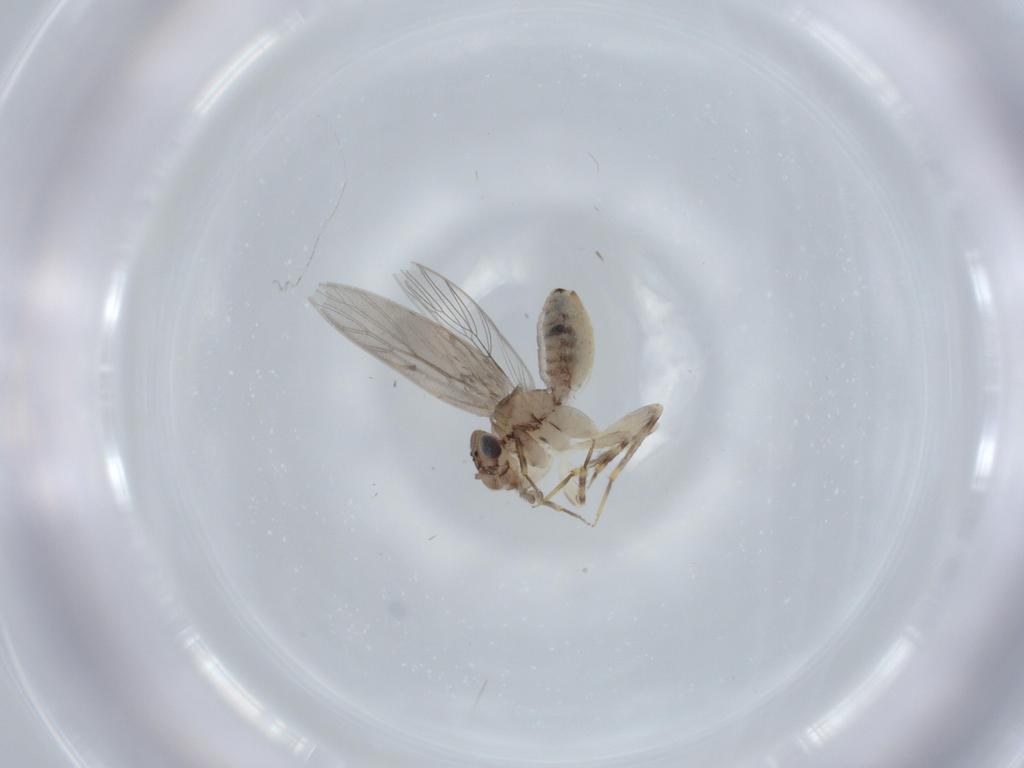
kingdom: Animalia
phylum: Arthropoda
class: Insecta
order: Psocodea
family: Lepidopsocidae
